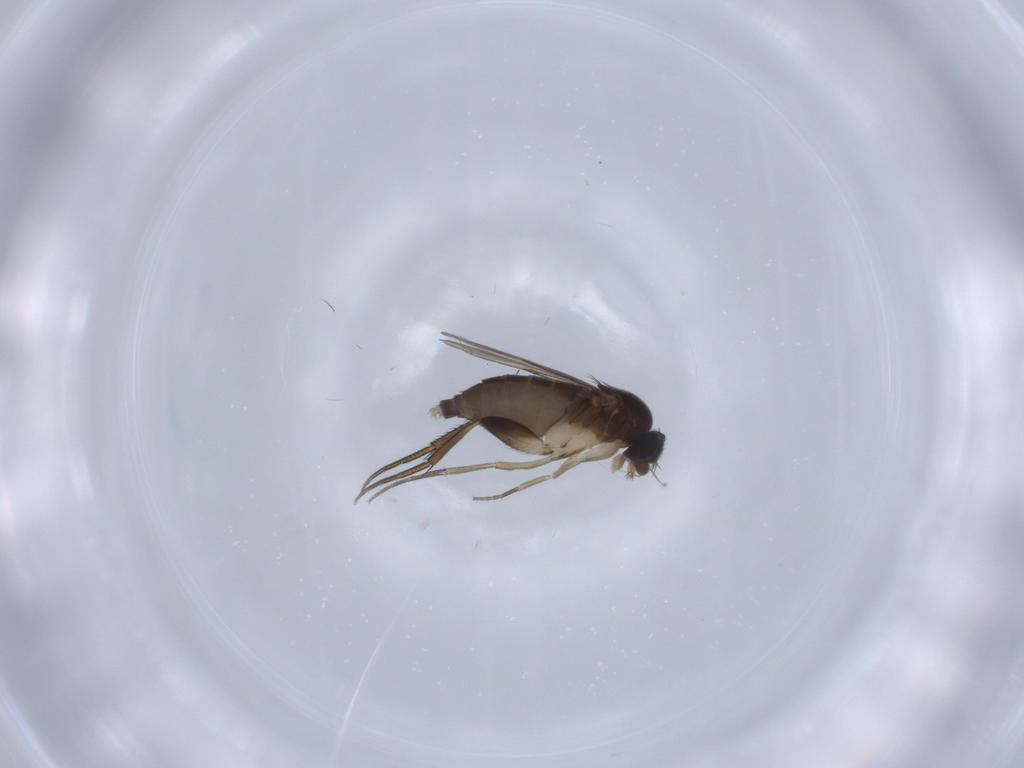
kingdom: Animalia
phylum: Arthropoda
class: Insecta
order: Diptera
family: Phoridae
